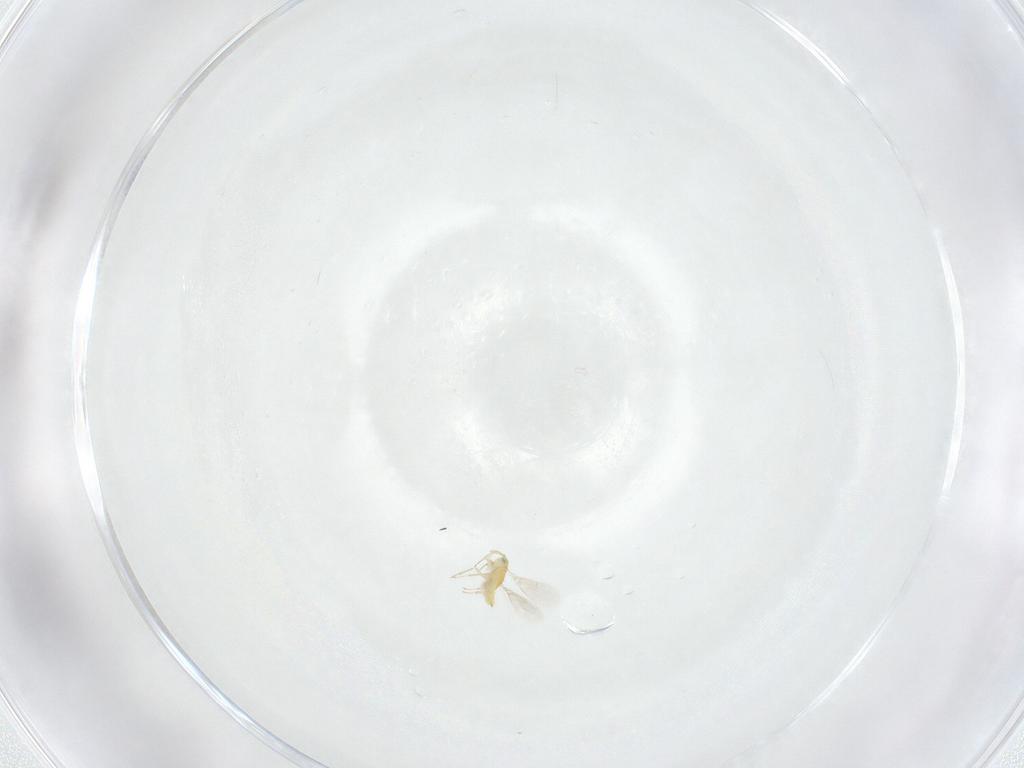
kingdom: Animalia
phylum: Arthropoda
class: Insecta
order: Hymenoptera
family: Aphelinidae
